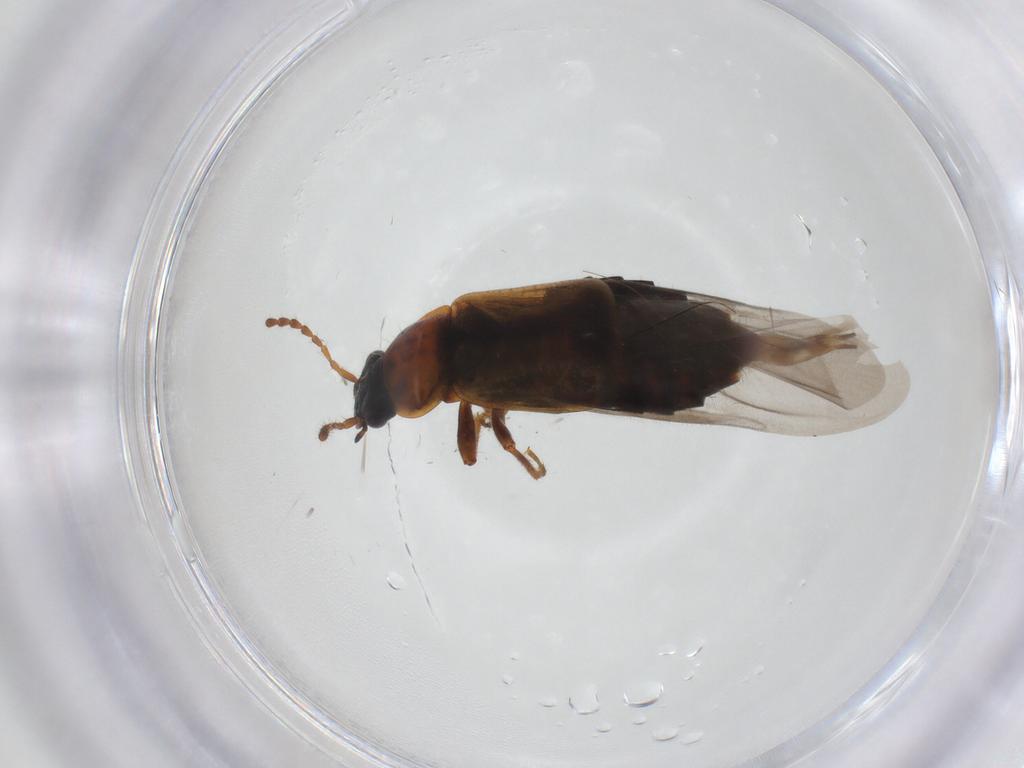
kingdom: Animalia
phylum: Arthropoda
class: Insecta
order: Coleoptera
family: Staphylinidae
